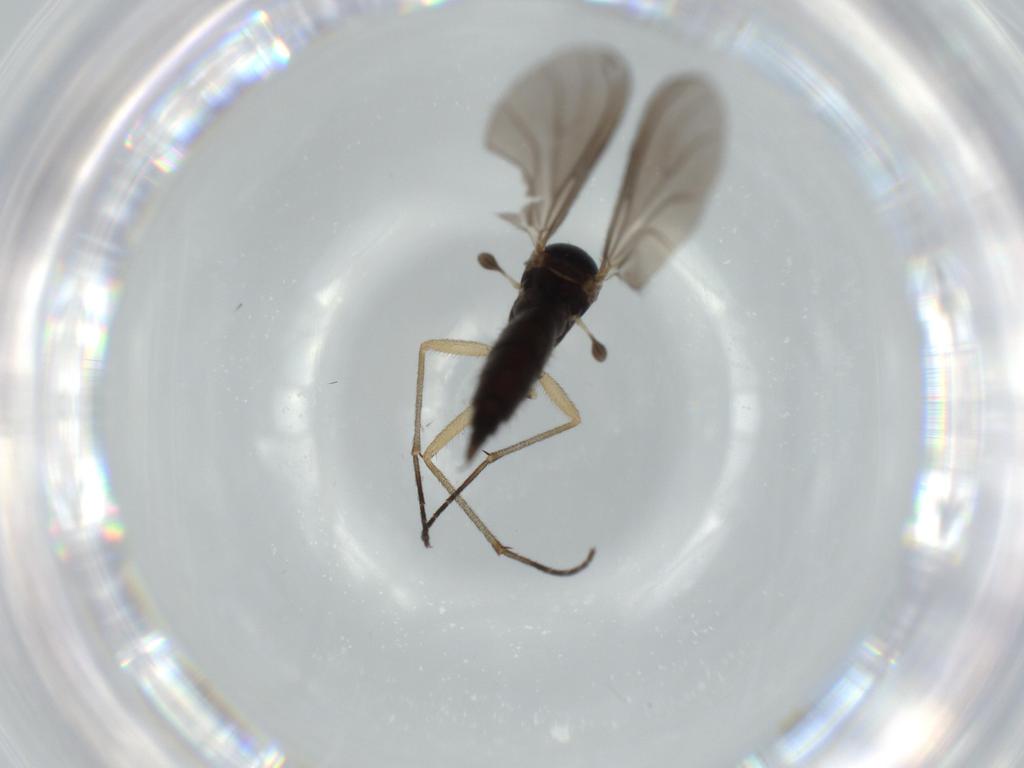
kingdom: Animalia
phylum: Arthropoda
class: Insecta
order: Diptera
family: Sciaridae
